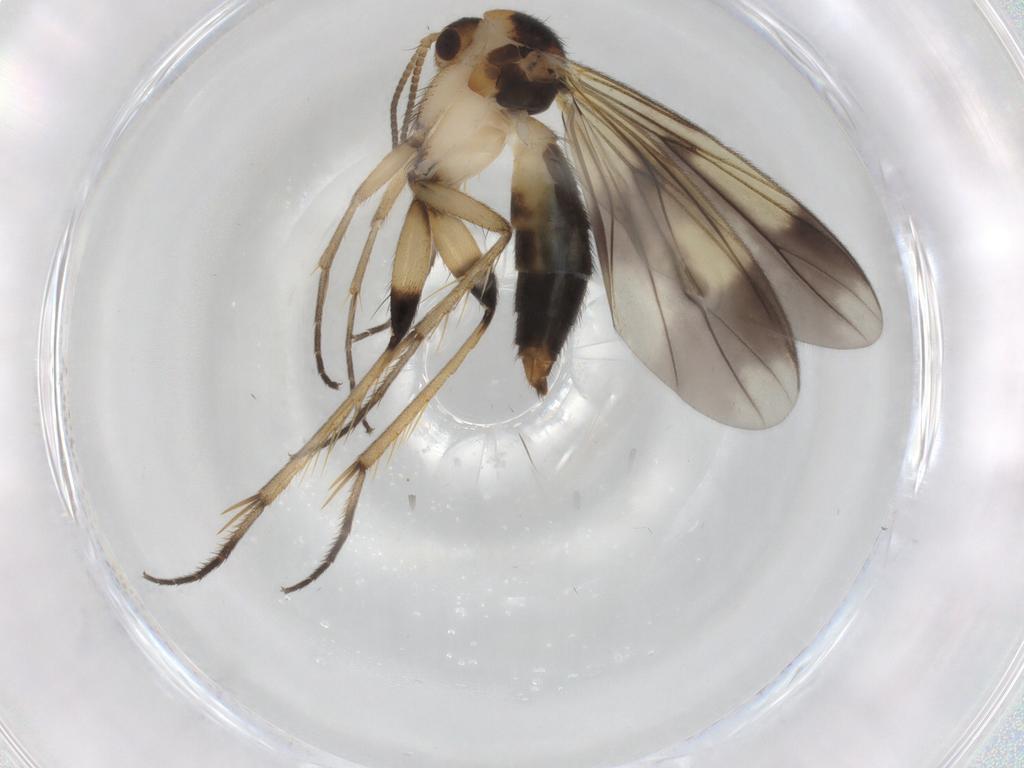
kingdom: Animalia
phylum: Arthropoda
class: Insecta
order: Diptera
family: Mycetophilidae
